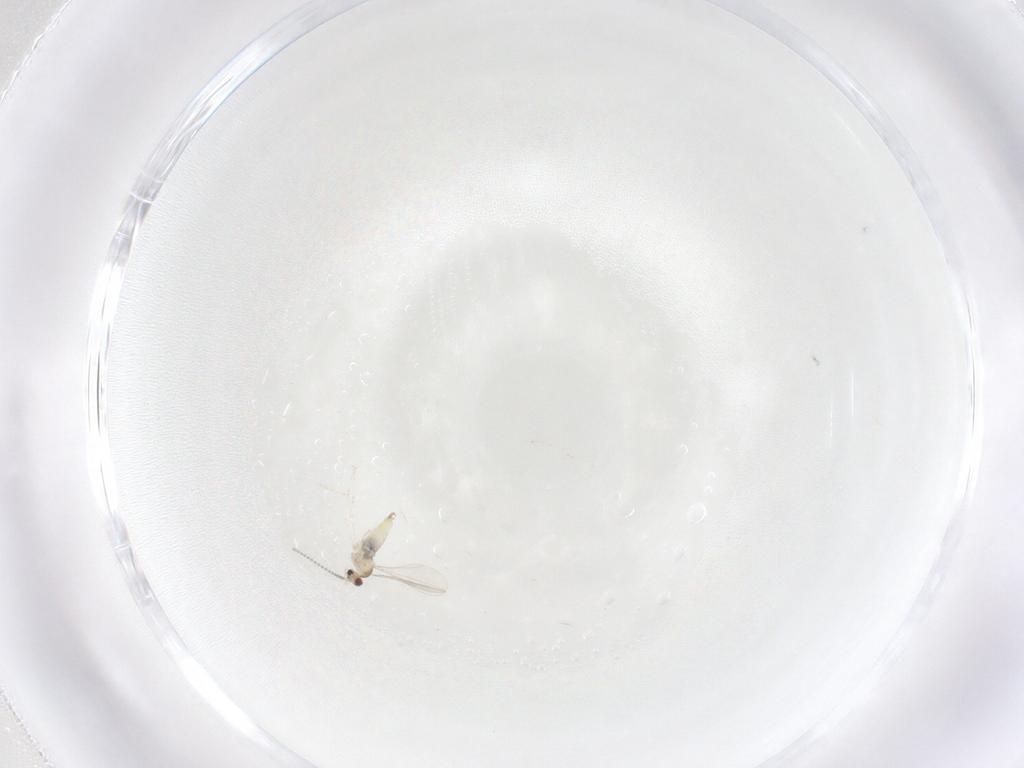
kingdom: Animalia
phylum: Arthropoda
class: Insecta
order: Diptera
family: Cecidomyiidae
